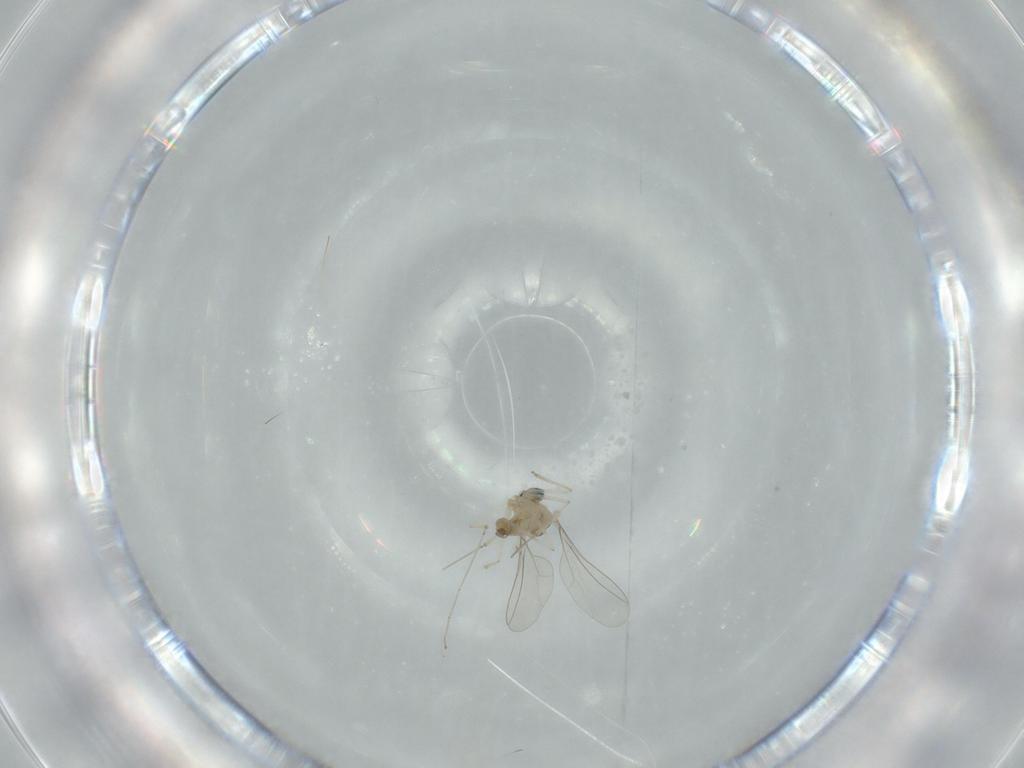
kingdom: Animalia
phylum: Arthropoda
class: Insecta
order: Diptera
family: Milichiidae
